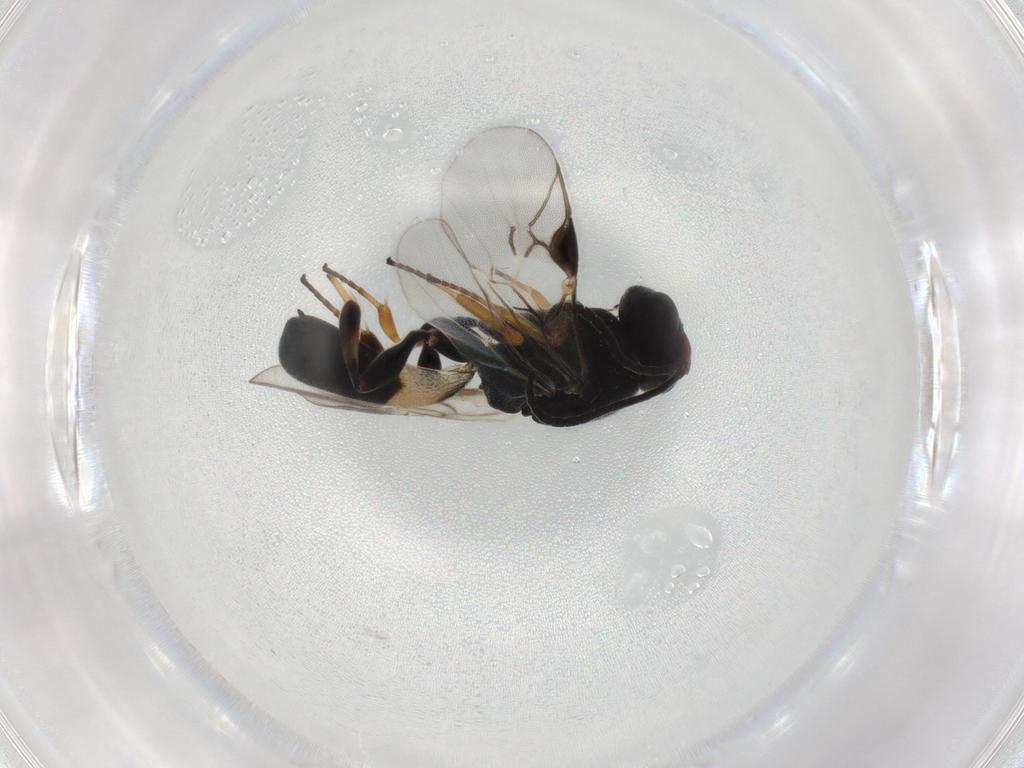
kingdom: Animalia
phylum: Arthropoda
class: Insecta
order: Hymenoptera
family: Braconidae
